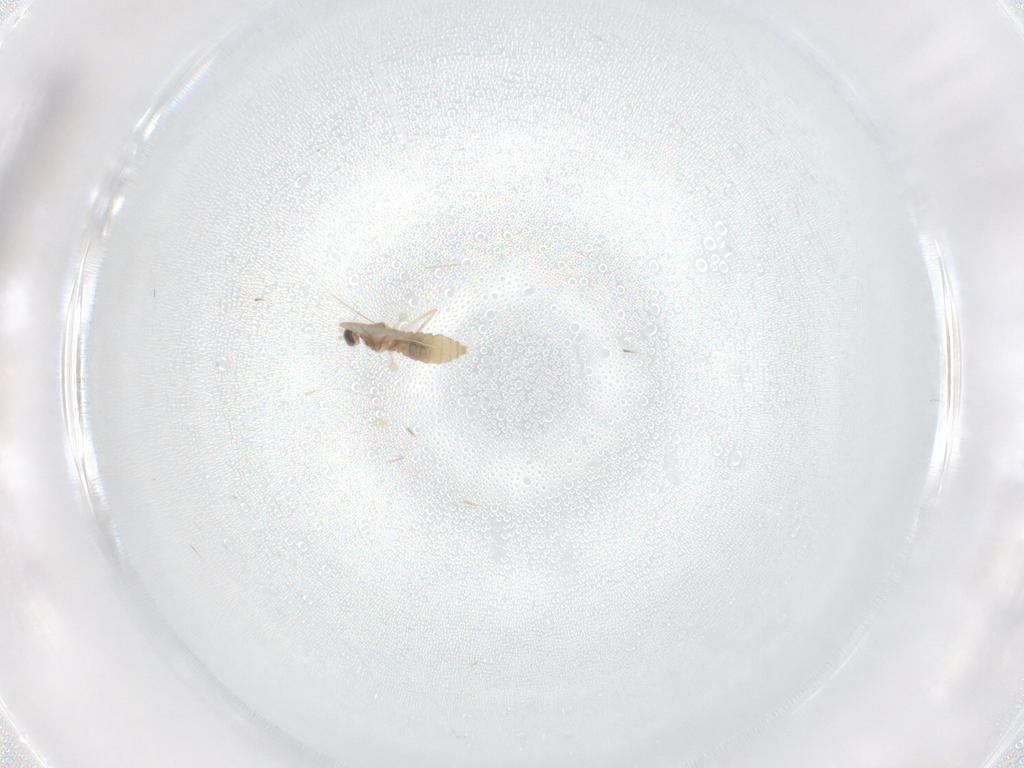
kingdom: Animalia
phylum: Arthropoda
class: Insecta
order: Diptera
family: Cecidomyiidae
